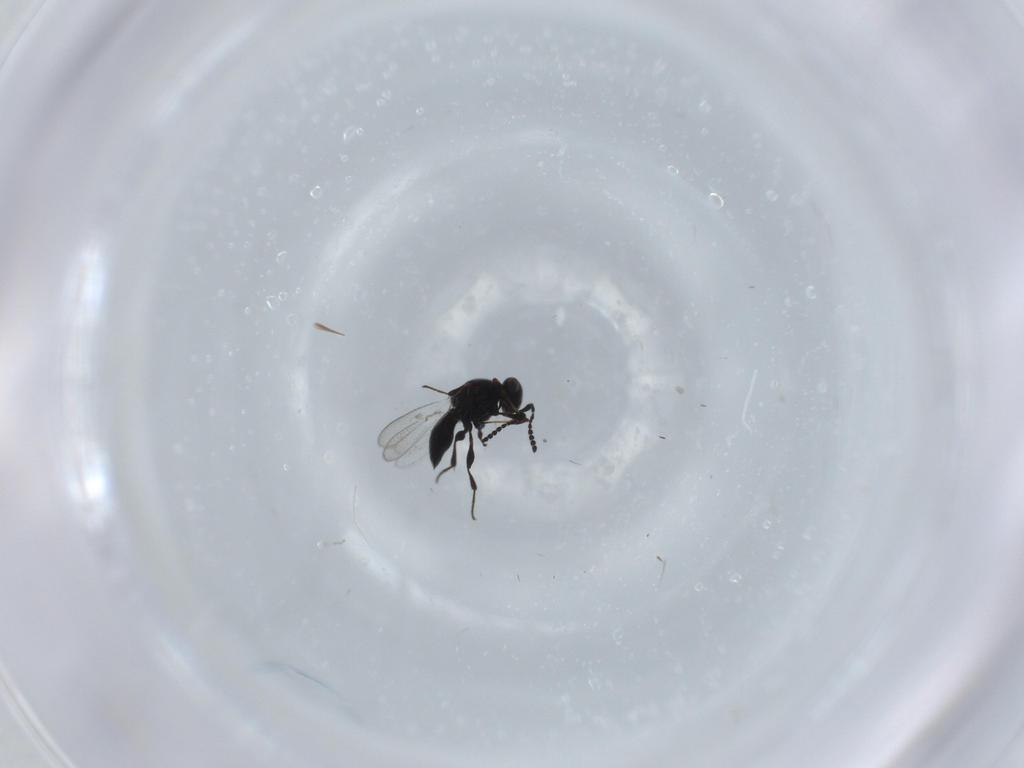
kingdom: Animalia
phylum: Arthropoda
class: Insecta
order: Hymenoptera
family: Platygastridae
